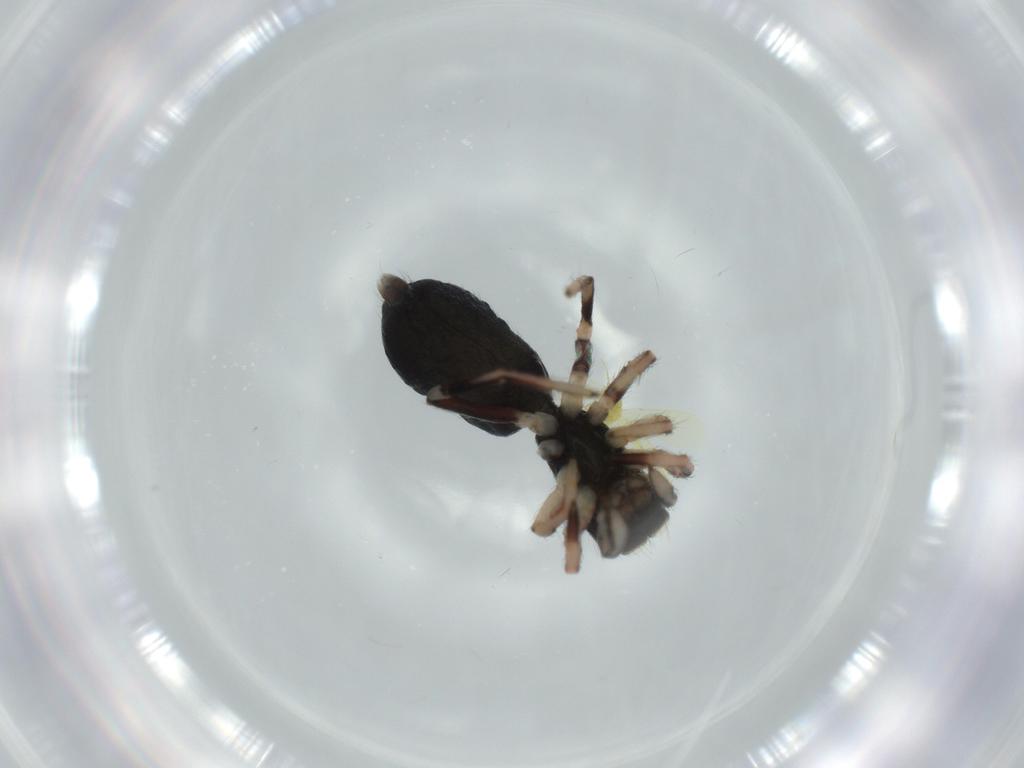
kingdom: Animalia
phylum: Arthropoda
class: Arachnida
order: Araneae
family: Salticidae
